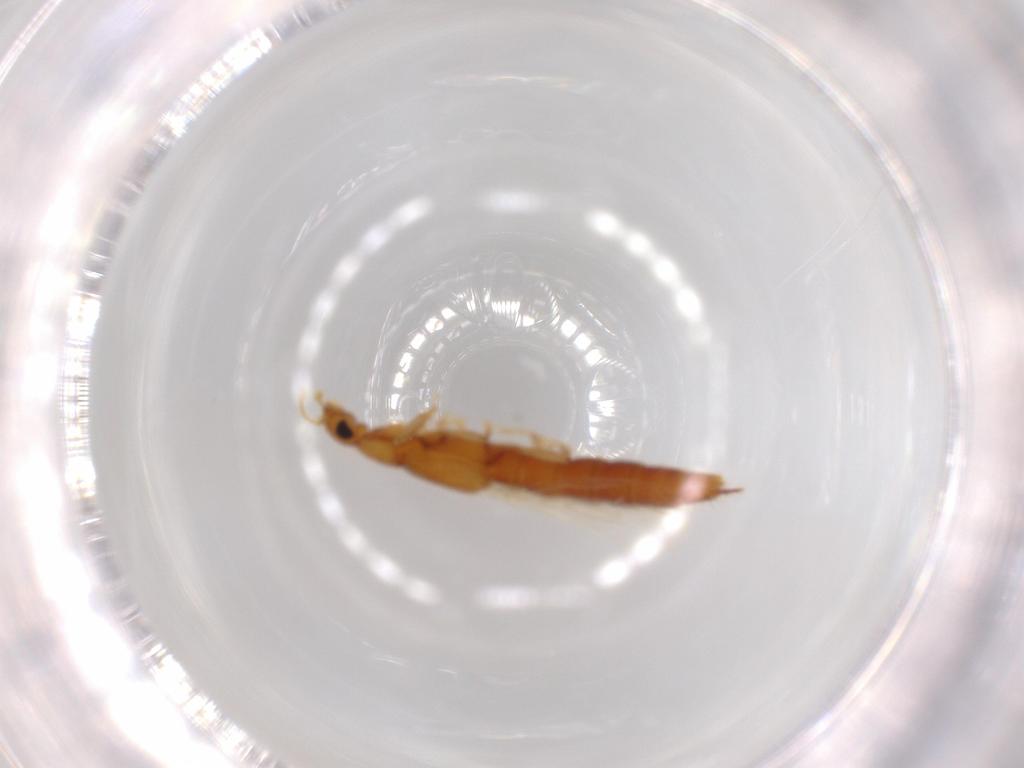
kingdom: Animalia
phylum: Arthropoda
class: Insecta
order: Coleoptera
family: Staphylinidae
